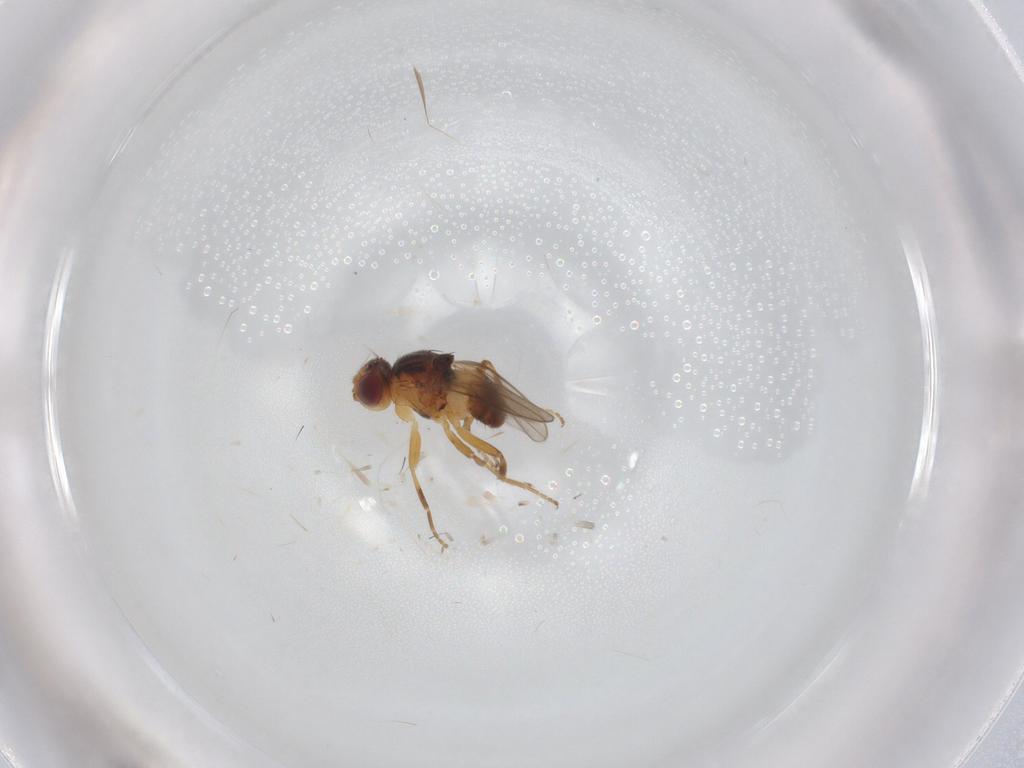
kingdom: Animalia
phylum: Arthropoda
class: Insecta
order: Diptera
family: Chloropidae
